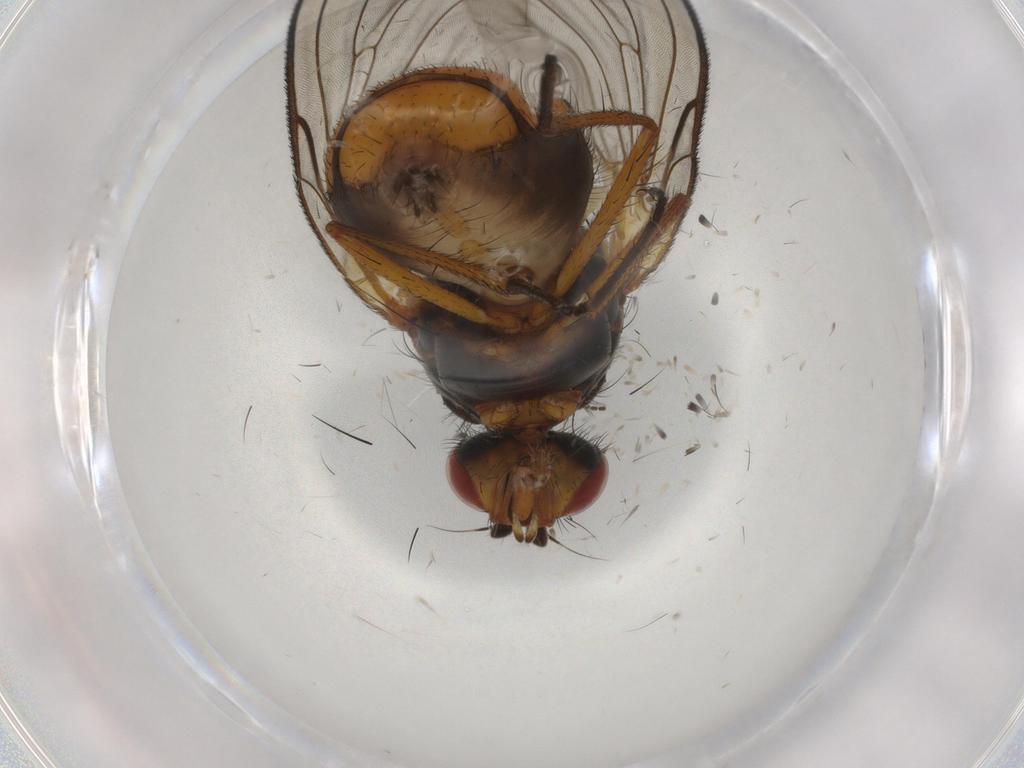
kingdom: Animalia
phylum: Arthropoda
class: Insecta
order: Diptera
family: Anthomyiidae
